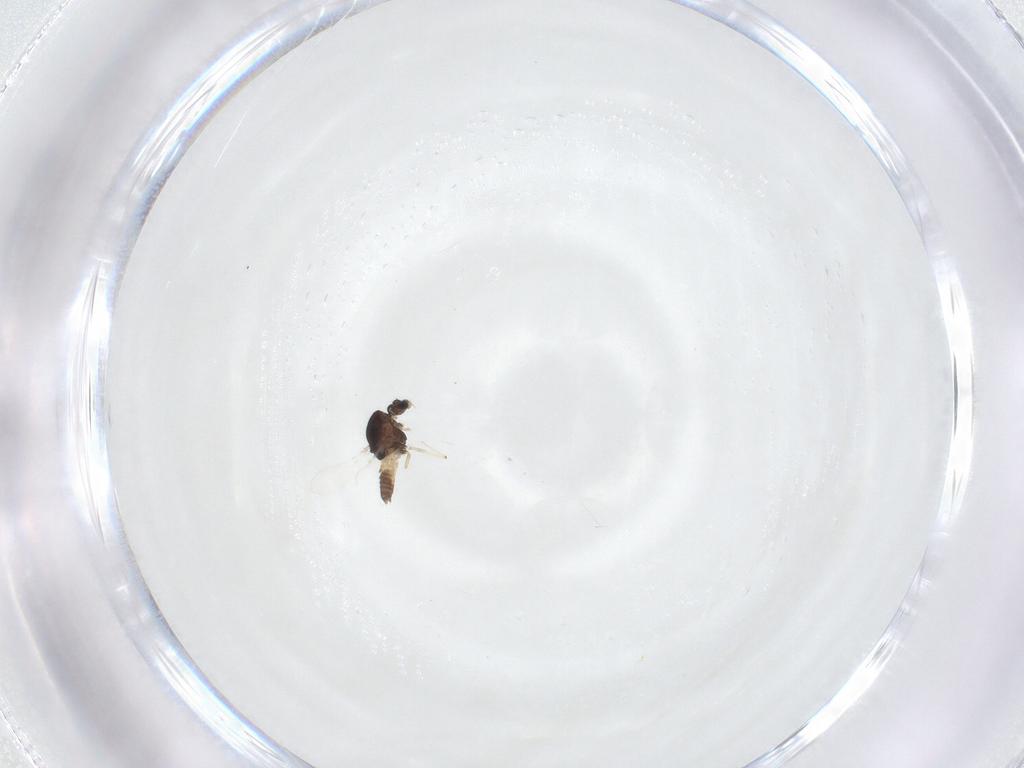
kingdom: Animalia
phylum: Arthropoda
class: Insecta
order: Diptera
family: Chironomidae
